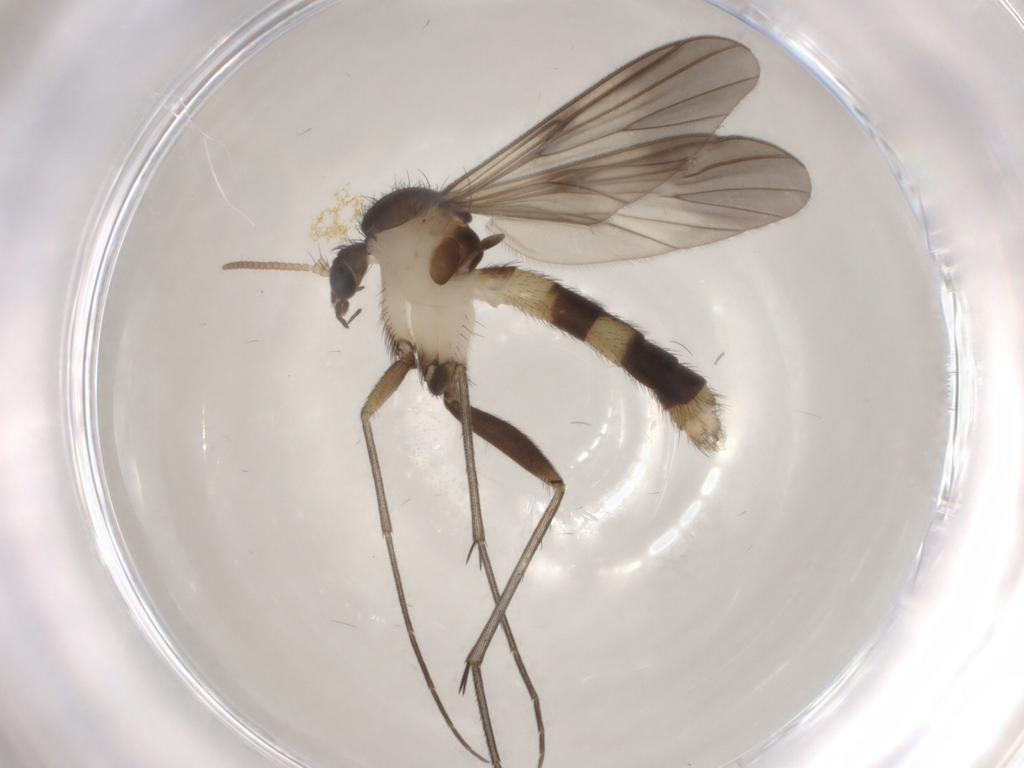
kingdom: Animalia
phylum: Arthropoda
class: Insecta
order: Diptera
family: Mycetophilidae
